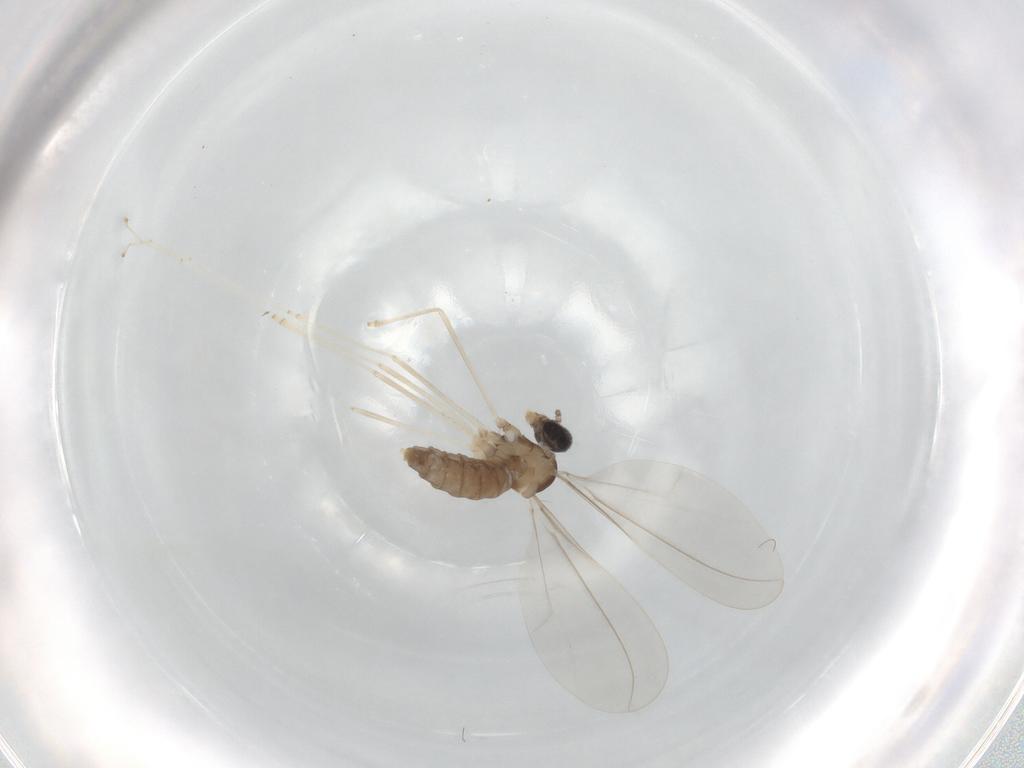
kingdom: Animalia
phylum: Arthropoda
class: Insecta
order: Diptera
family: Cecidomyiidae
